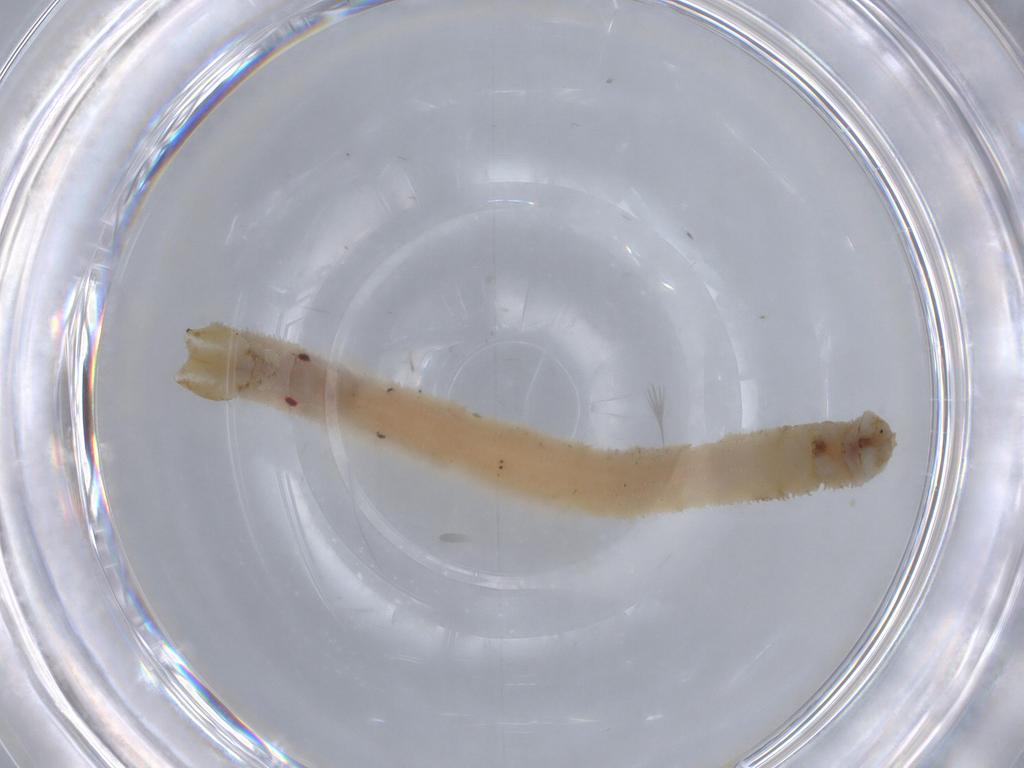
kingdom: Animalia
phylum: Arthropoda
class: Insecta
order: Lepidoptera
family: Geometridae
